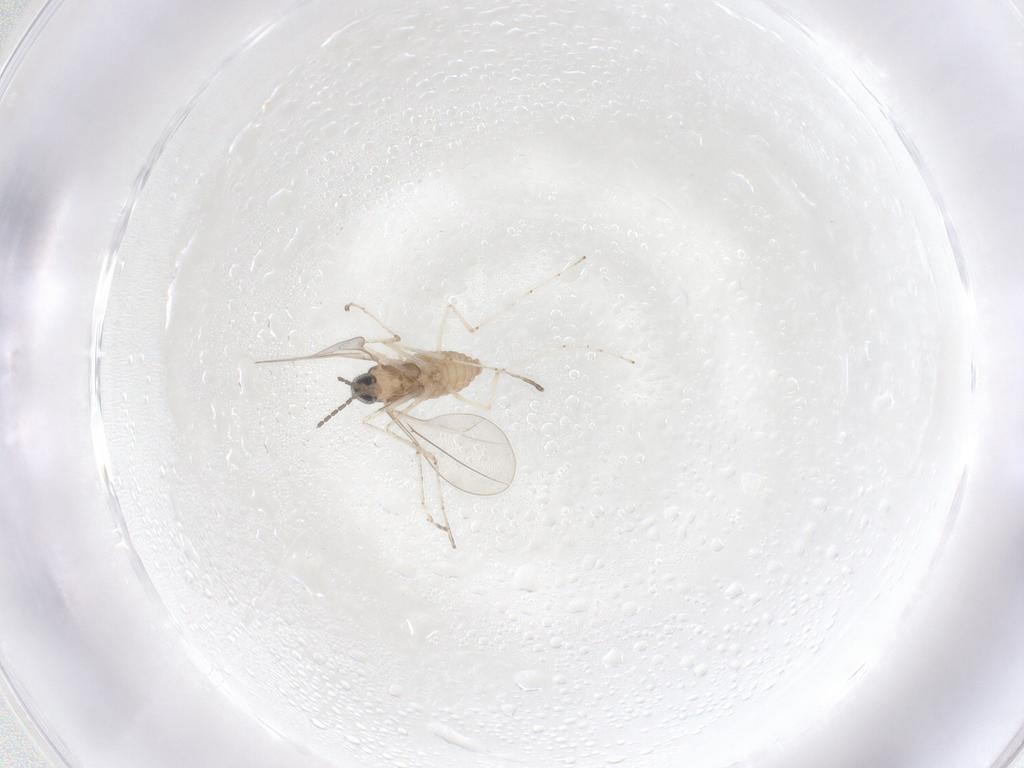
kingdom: Animalia
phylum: Arthropoda
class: Insecta
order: Diptera
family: Cecidomyiidae
